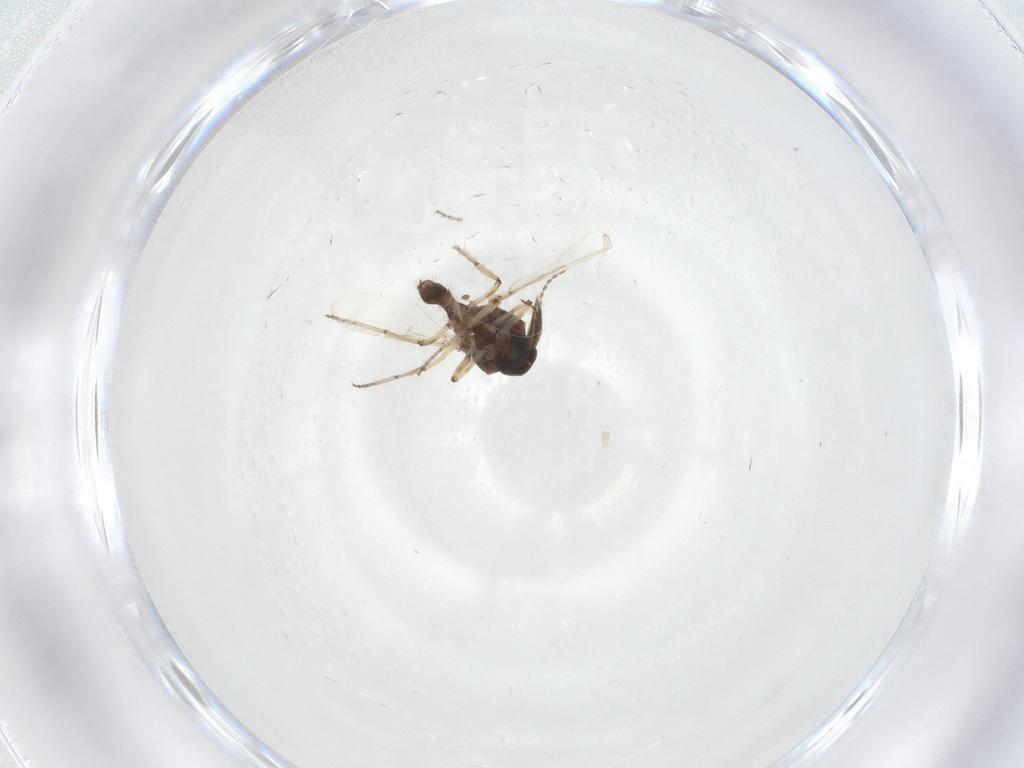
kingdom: Animalia
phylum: Arthropoda
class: Insecta
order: Diptera
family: Ceratopogonidae
